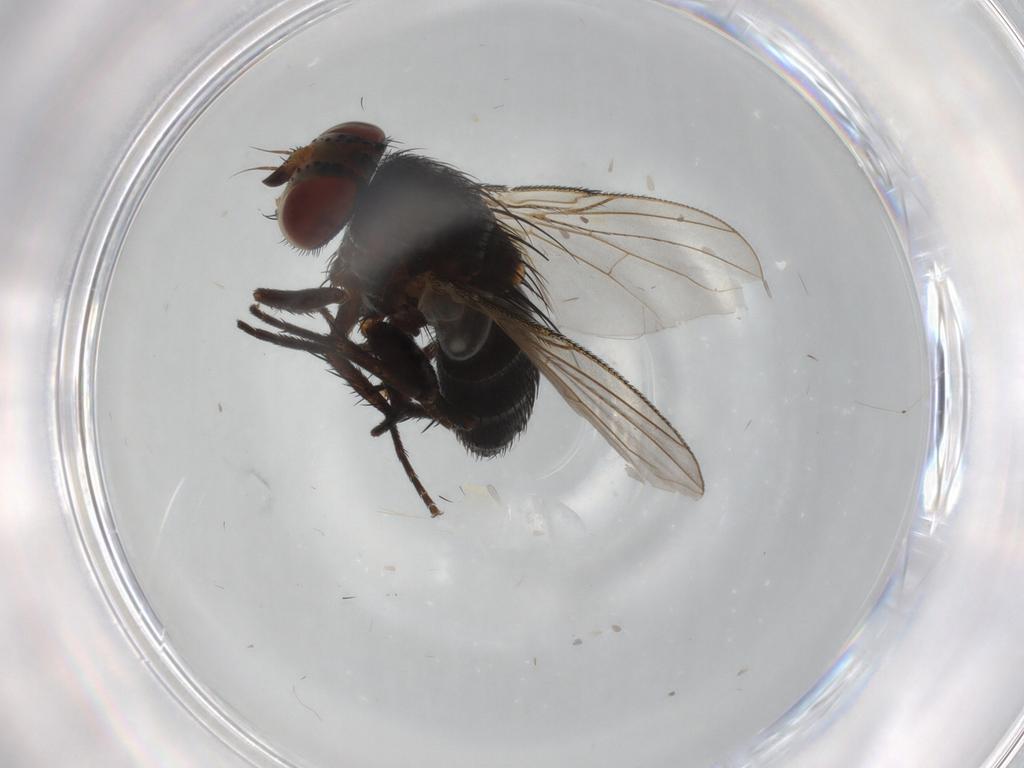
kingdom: Animalia
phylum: Arthropoda
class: Insecta
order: Diptera
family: Tachinidae
